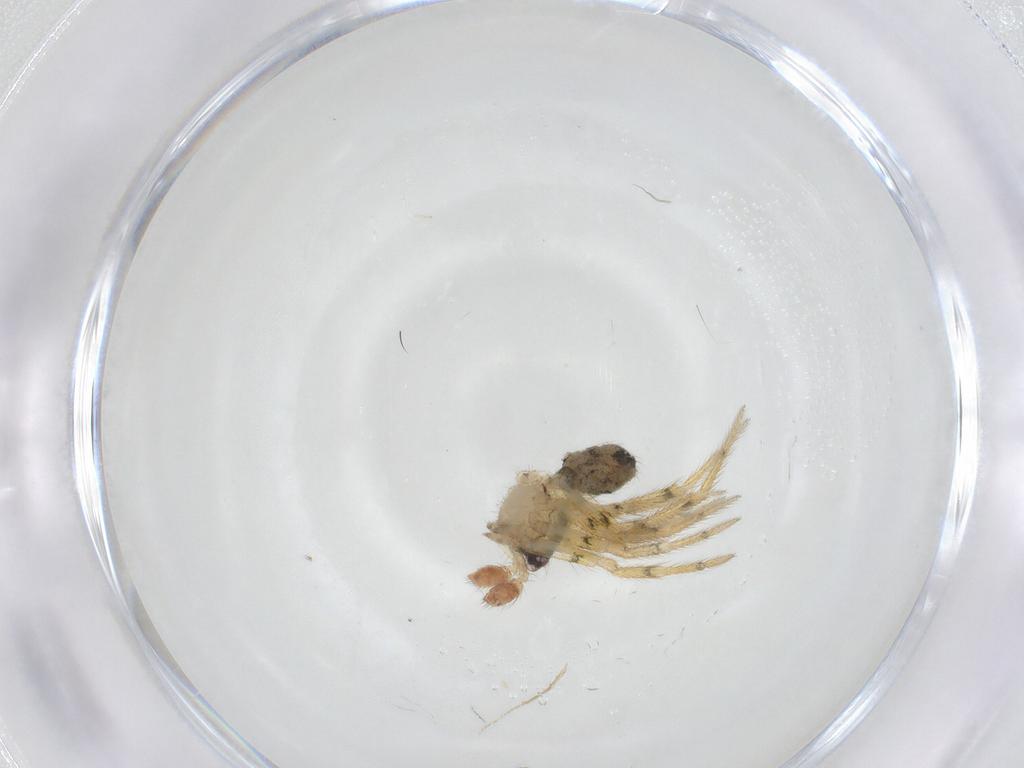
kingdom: Animalia
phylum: Arthropoda
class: Arachnida
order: Araneae
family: Theridiidae
